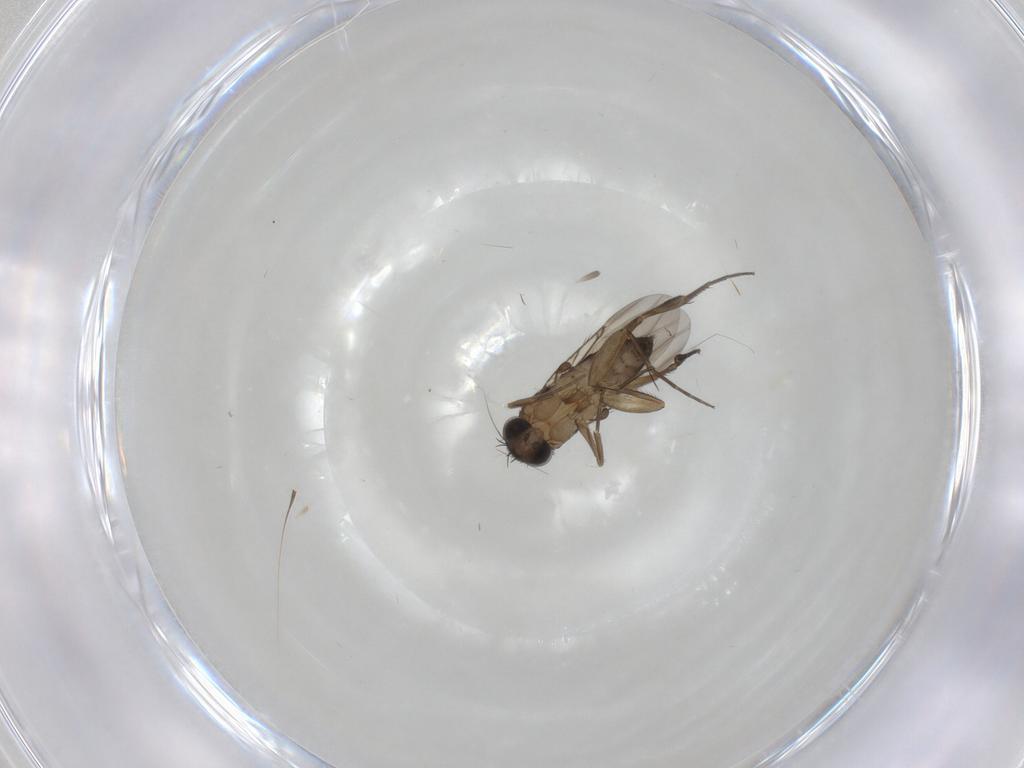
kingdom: Animalia
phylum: Arthropoda
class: Insecta
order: Diptera
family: Phoridae
